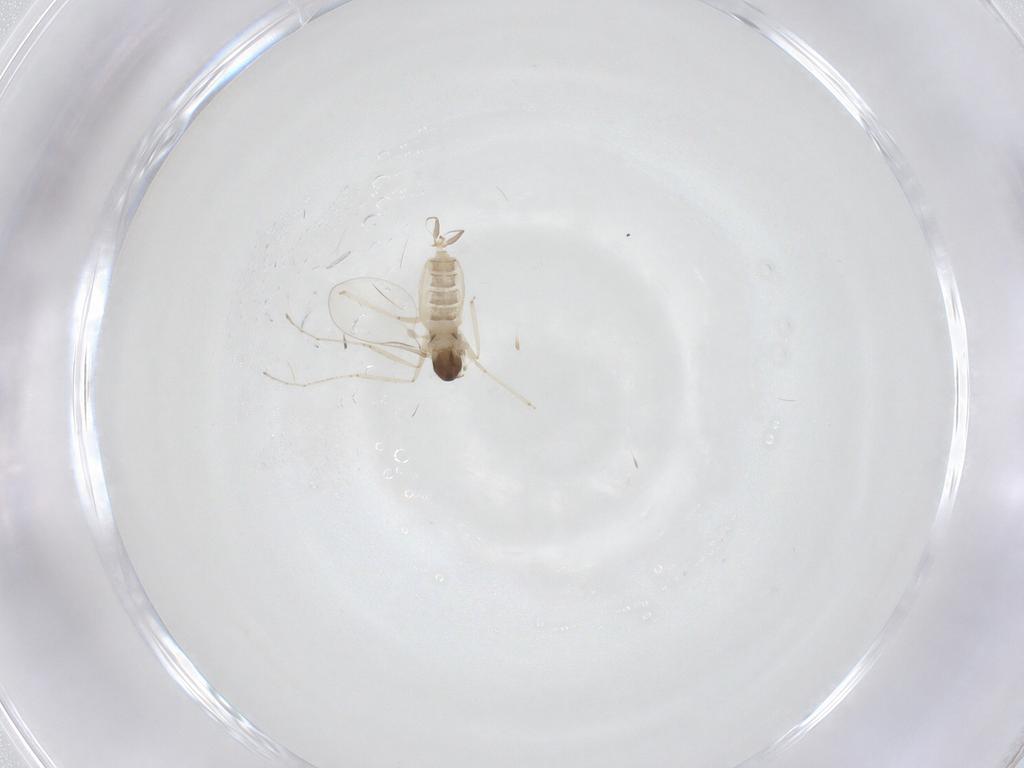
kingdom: Animalia
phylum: Arthropoda
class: Insecta
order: Diptera
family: Cecidomyiidae
